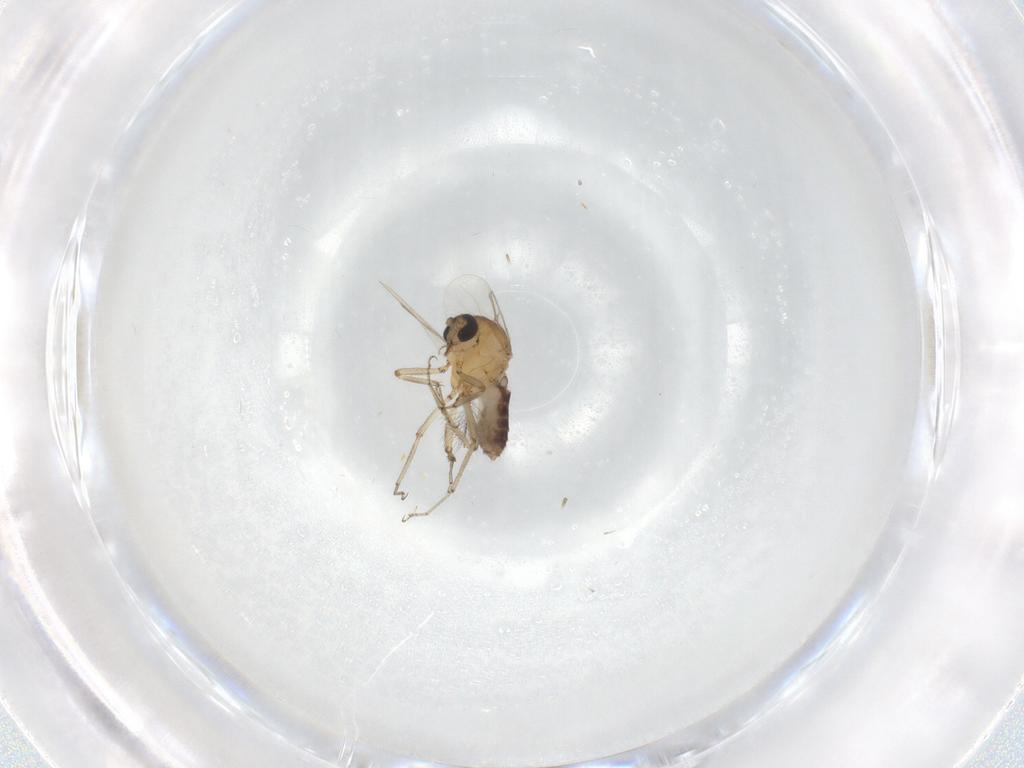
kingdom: Animalia
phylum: Arthropoda
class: Insecta
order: Diptera
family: Ceratopogonidae
